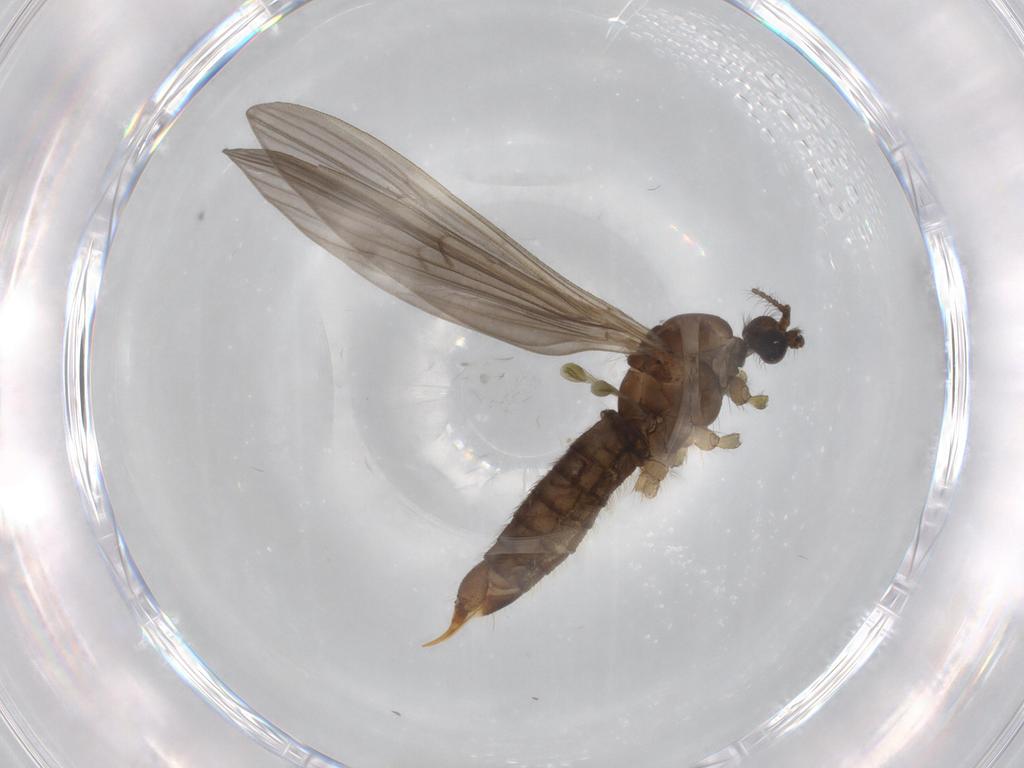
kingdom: Animalia
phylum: Arthropoda
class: Insecta
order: Diptera
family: Limoniidae
